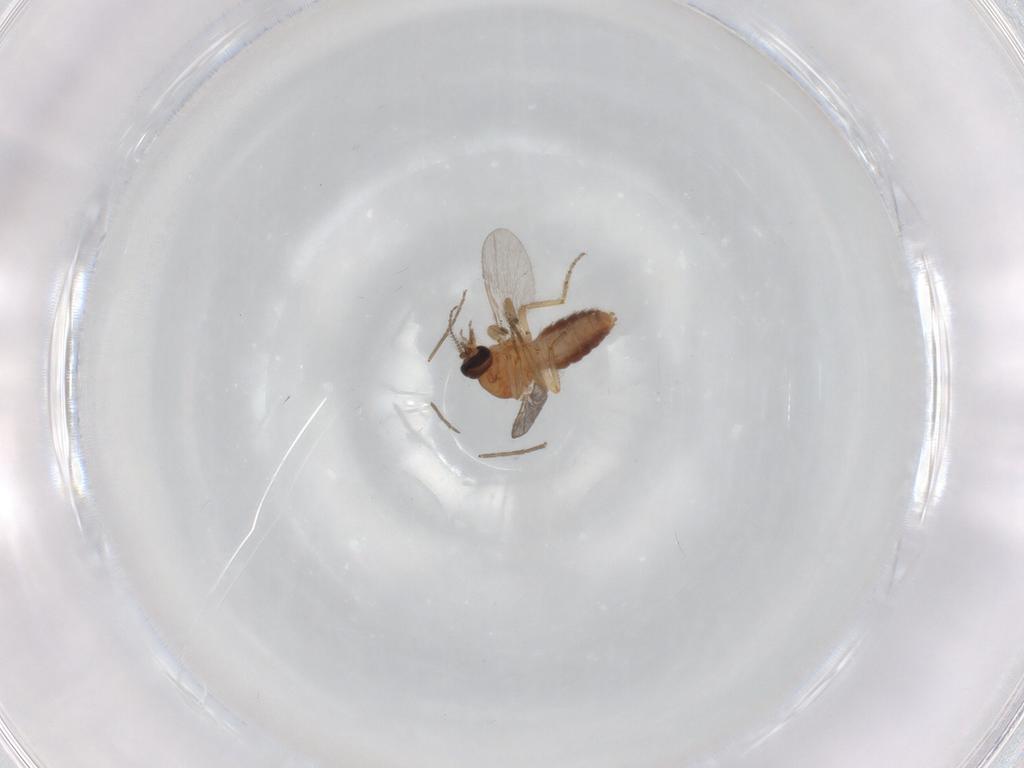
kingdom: Animalia
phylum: Arthropoda
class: Insecta
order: Diptera
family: Ceratopogonidae
